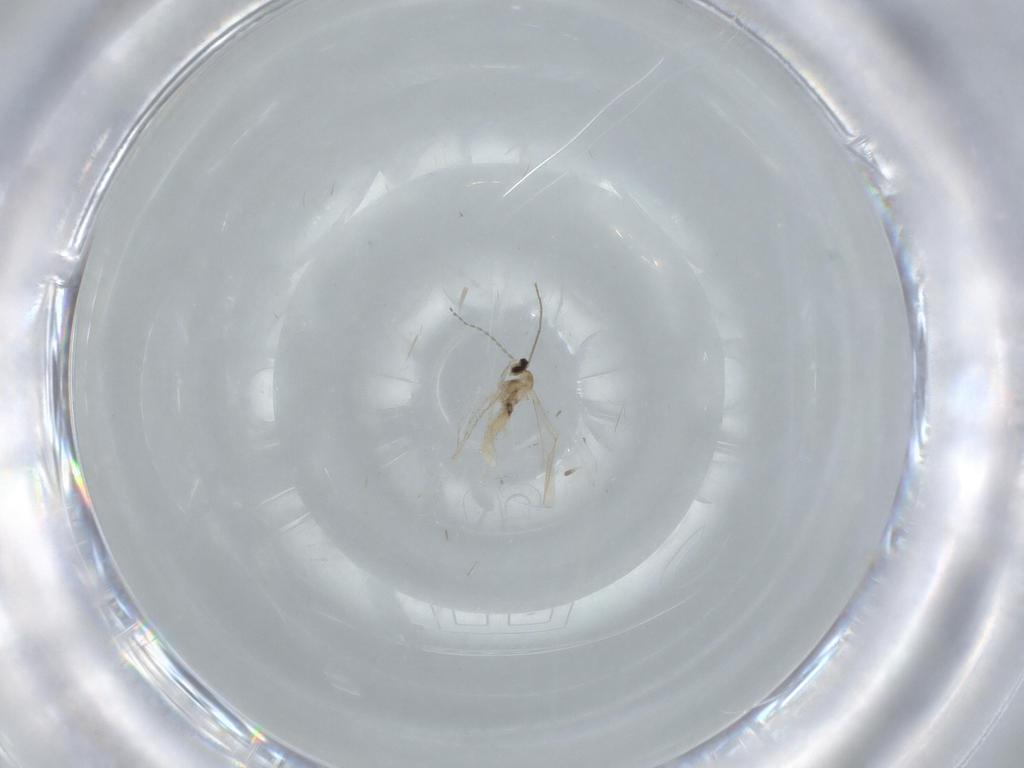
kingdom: Animalia
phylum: Arthropoda
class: Insecta
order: Diptera
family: Cecidomyiidae
